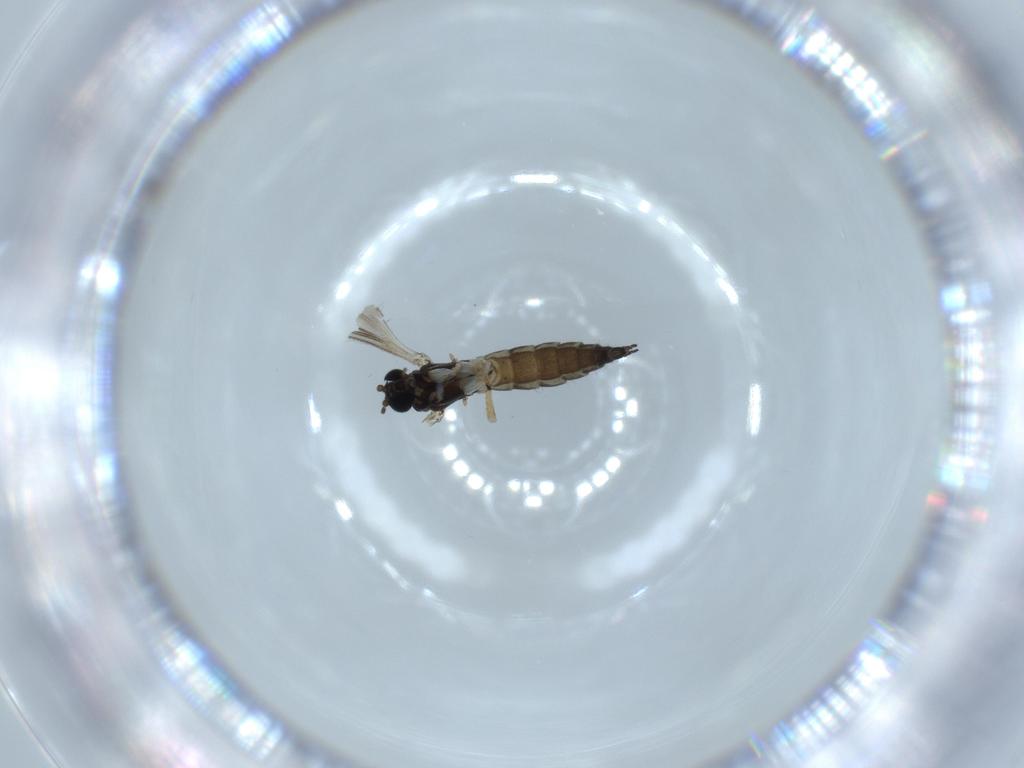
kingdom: Animalia
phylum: Arthropoda
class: Insecta
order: Diptera
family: Sciaridae
